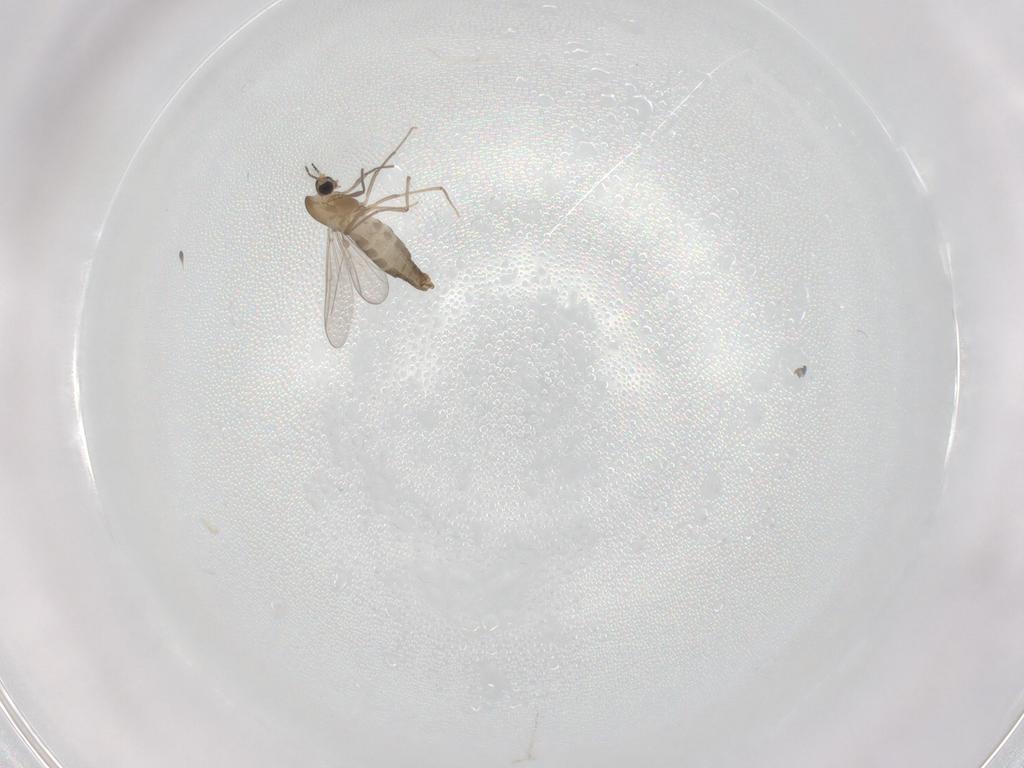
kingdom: Animalia
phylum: Arthropoda
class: Insecta
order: Diptera
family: Chironomidae
